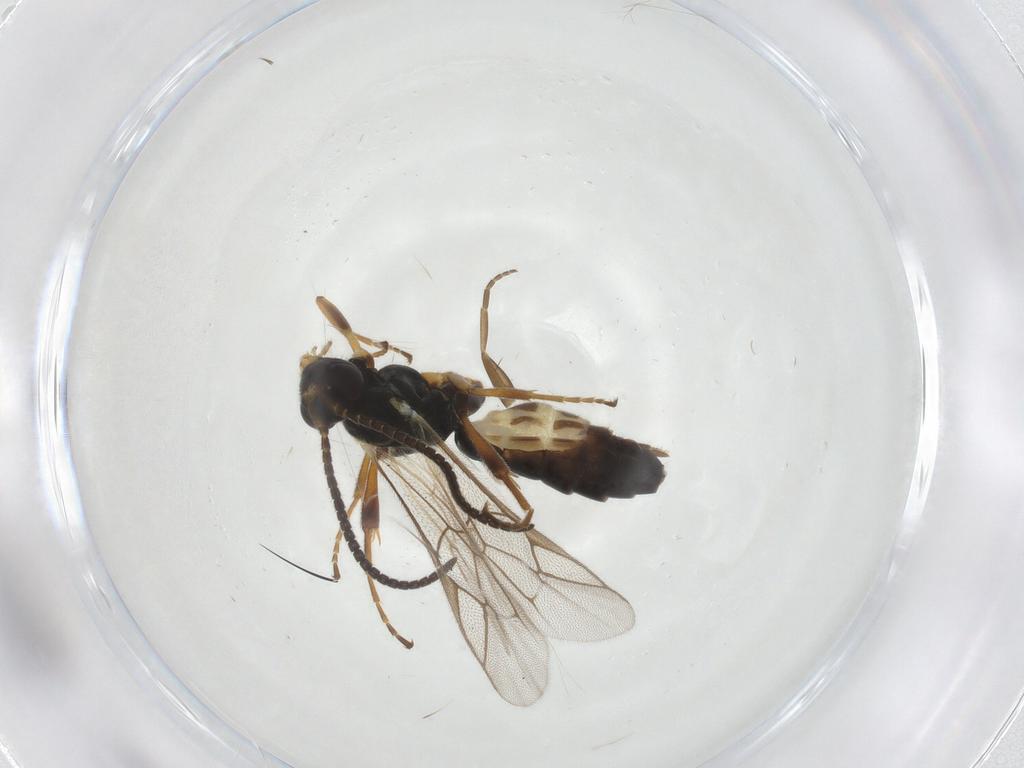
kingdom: Animalia
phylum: Arthropoda
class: Insecta
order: Hymenoptera
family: Ichneumonidae
